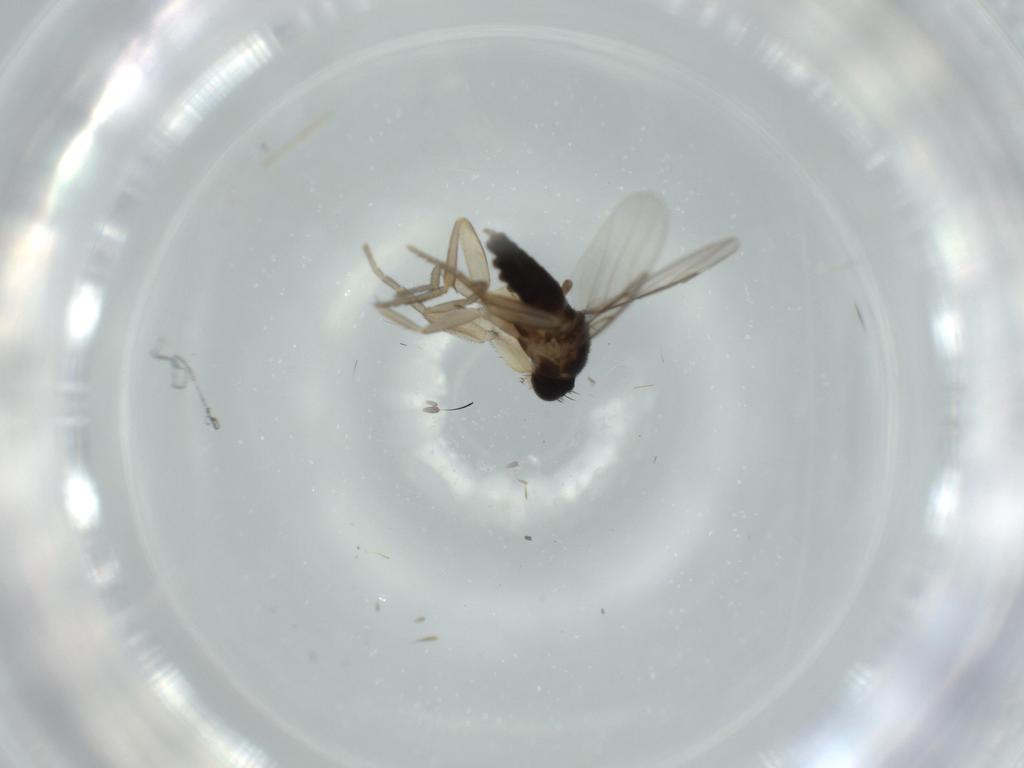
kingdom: Animalia
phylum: Arthropoda
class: Insecta
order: Diptera
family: Phoridae
